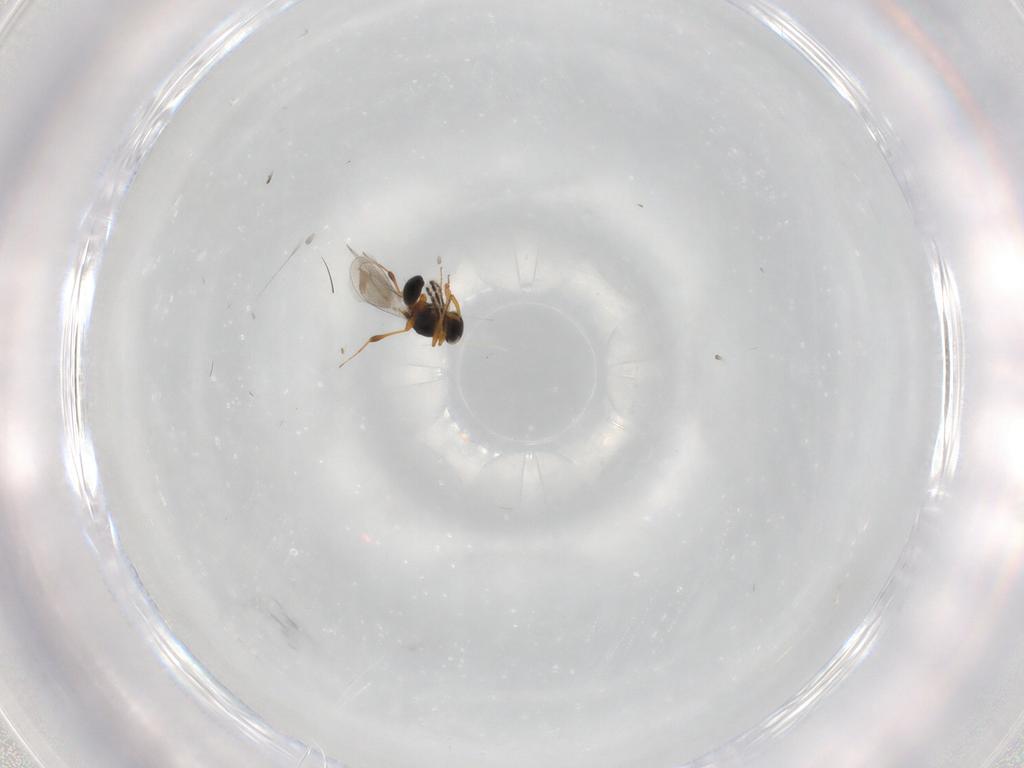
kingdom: Animalia
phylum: Arthropoda
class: Insecta
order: Hymenoptera
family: Platygastridae
